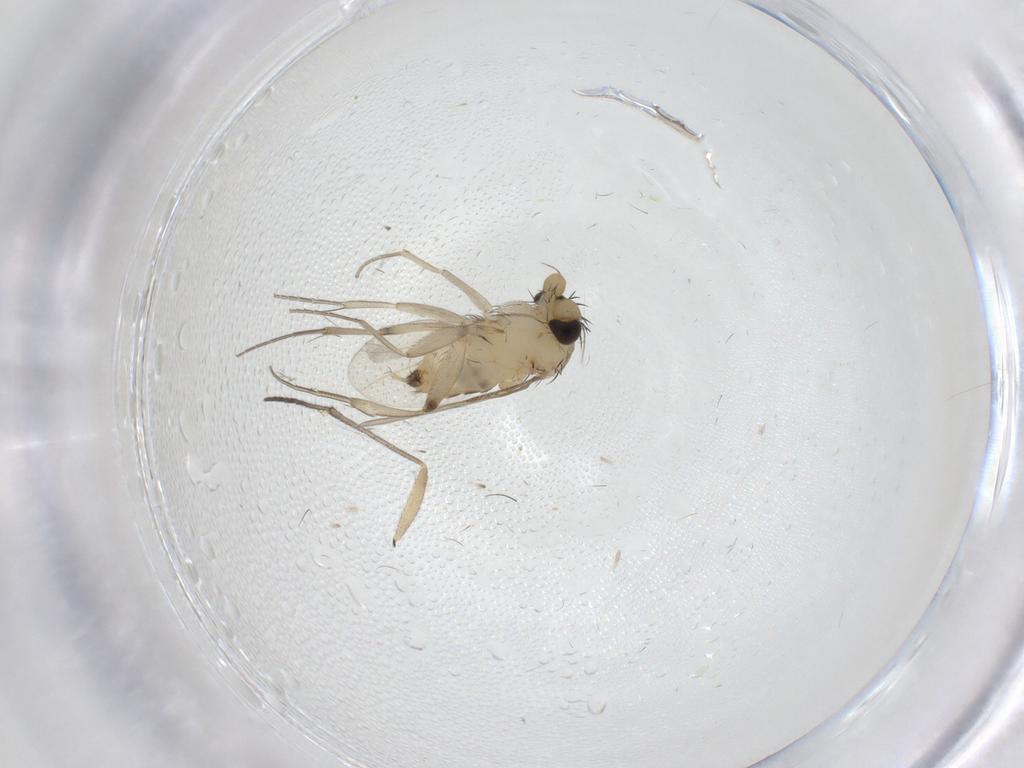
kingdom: Animalia
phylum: Arthropoda
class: Insecta
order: Diptera
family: Phoridae
